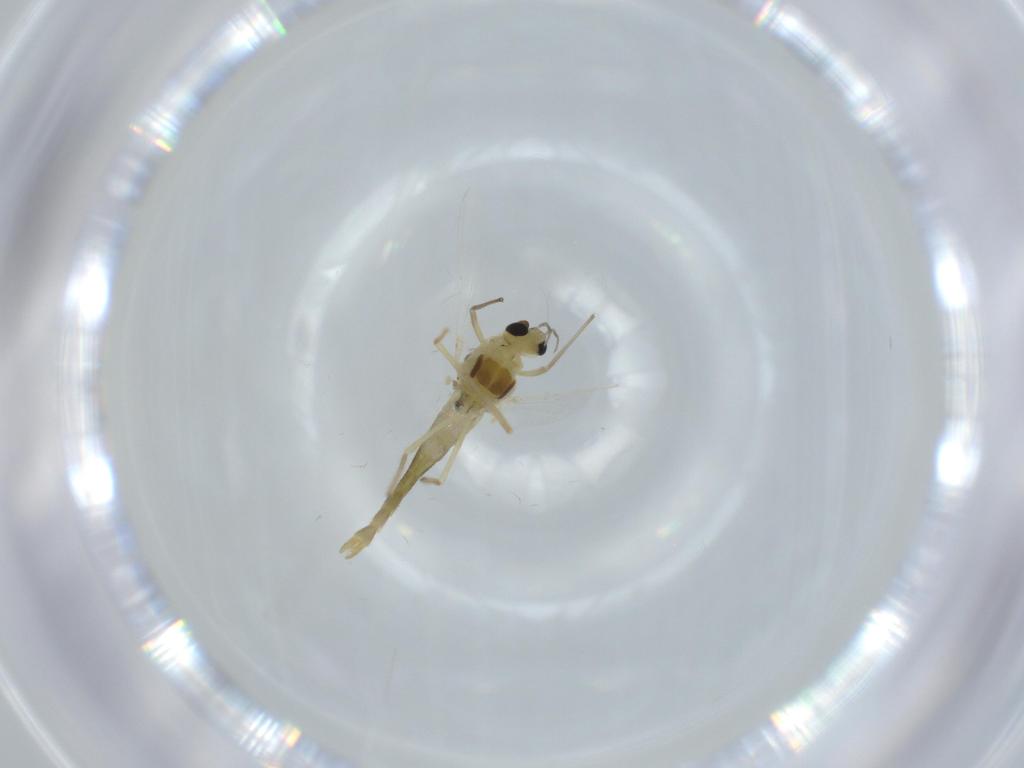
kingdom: Animalia
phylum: Arthropoda
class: Insecta
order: Diptera
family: Chironomidae
